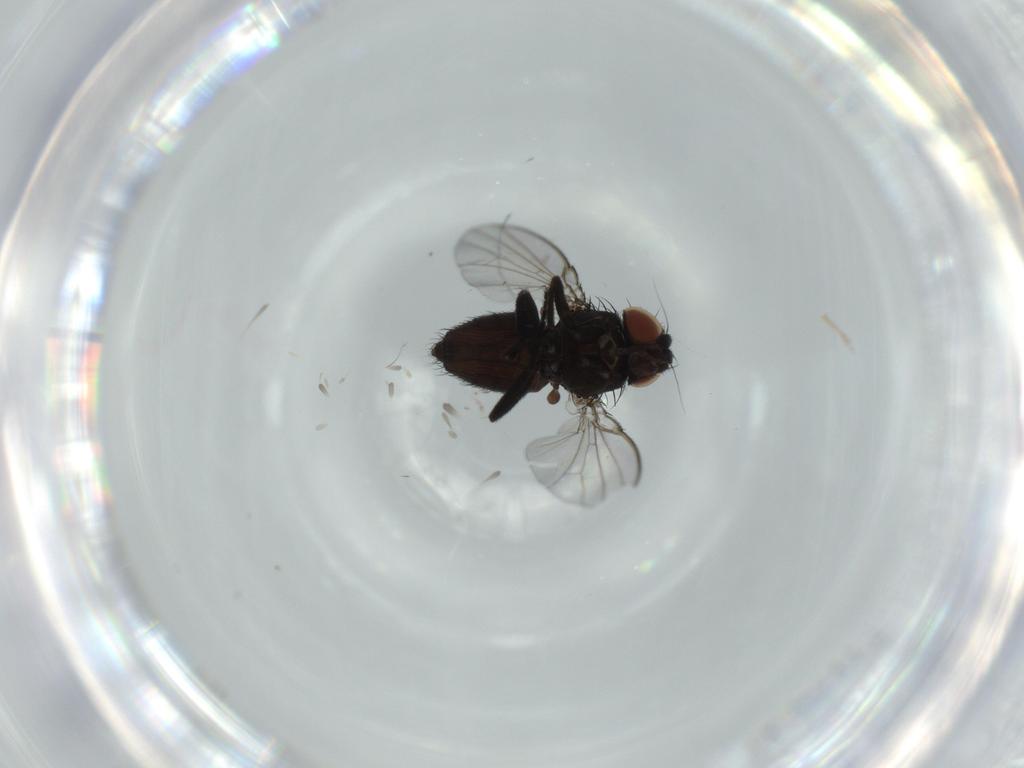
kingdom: Animalia
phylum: Arthropoda
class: Insecta
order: Diptera
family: Milichiidae
